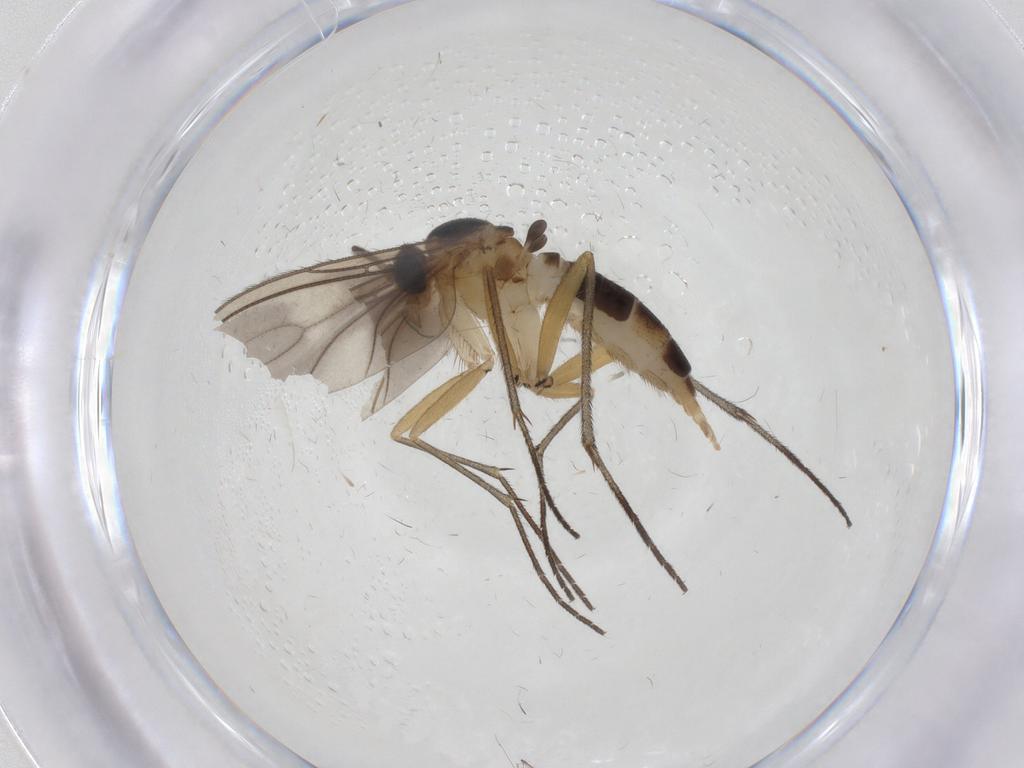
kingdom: Animalia
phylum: Arthropoda
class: Insecta
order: Diptera
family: Sciaridae
